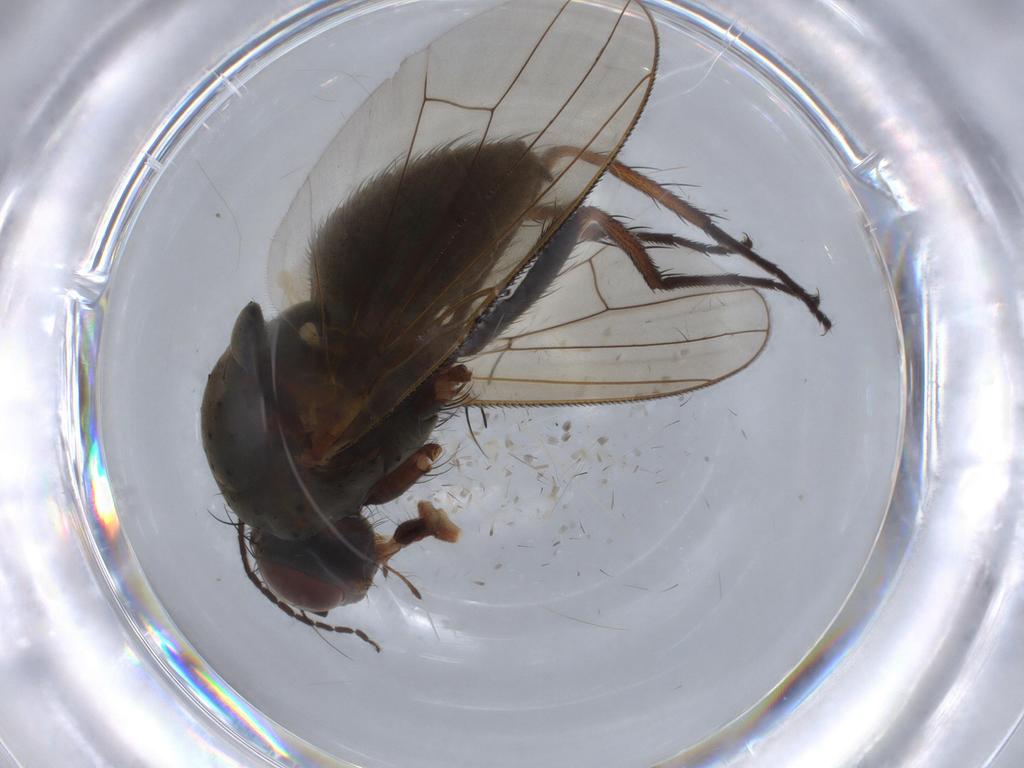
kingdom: Animalia
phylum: Arthropoda
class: Insecta
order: Diptera
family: Anthomyiidae
